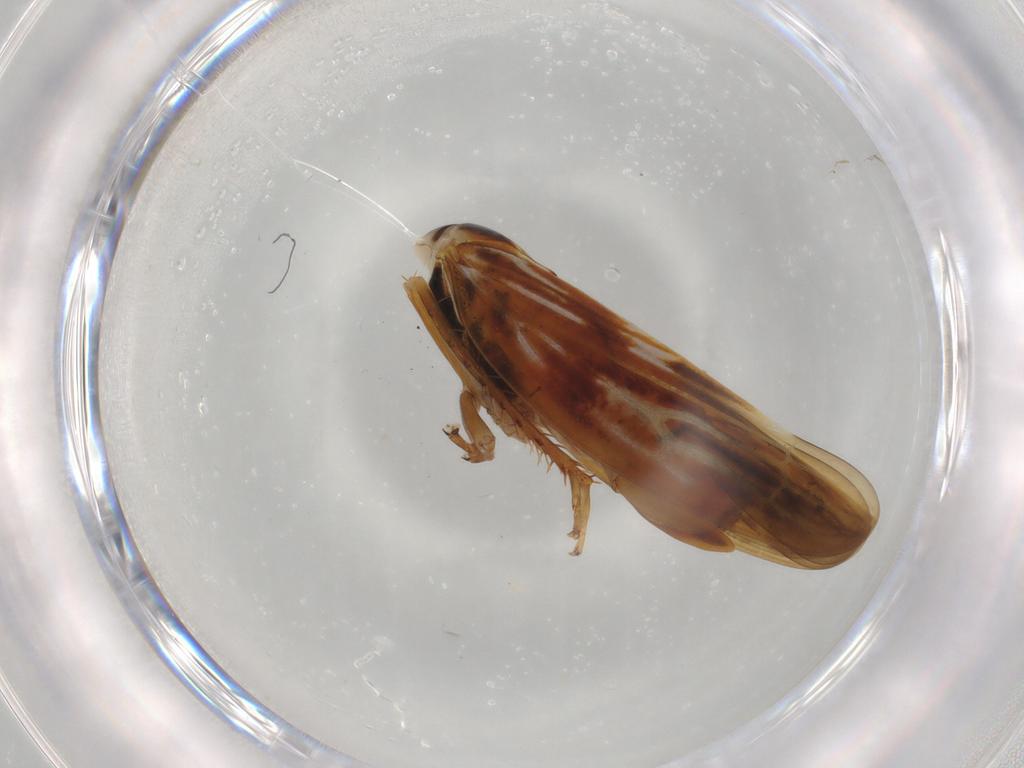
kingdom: Animalia
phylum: Arthropoda
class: Insecta
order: Hemiptera
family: Cicadellidae
